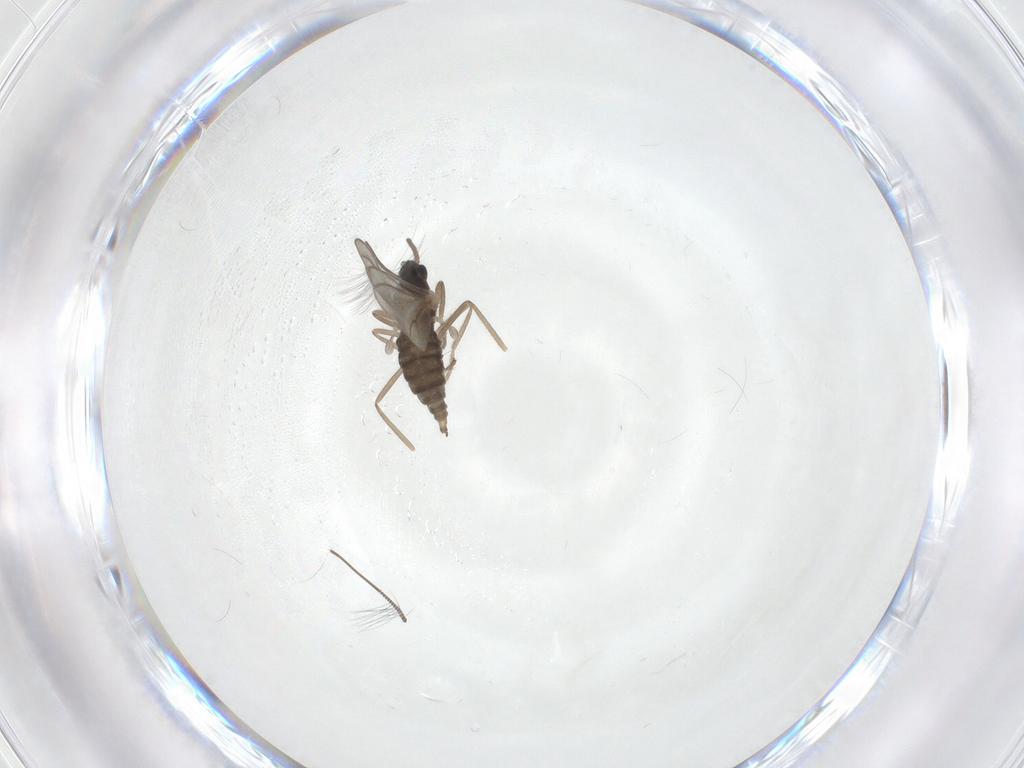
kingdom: Animalia
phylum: Arthropoda
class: Insecta
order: Diptera
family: Cecidomyiidae
